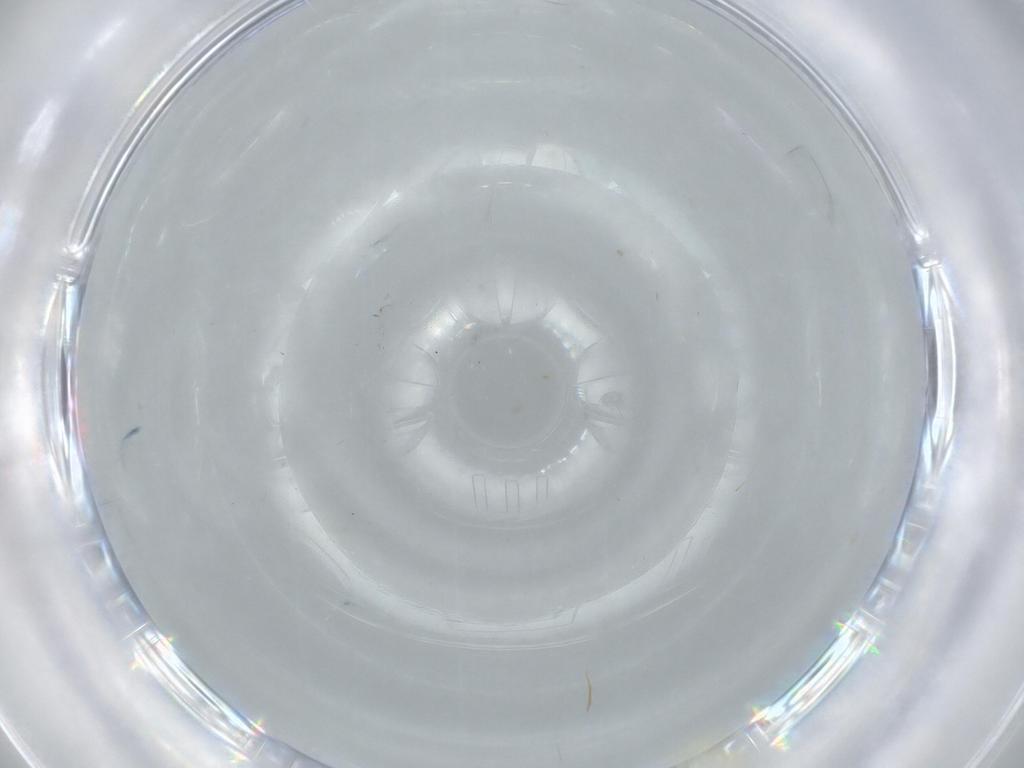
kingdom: Animalia
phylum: Arthropoda
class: Insecta
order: Hemiptera
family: Aleyrodidae
